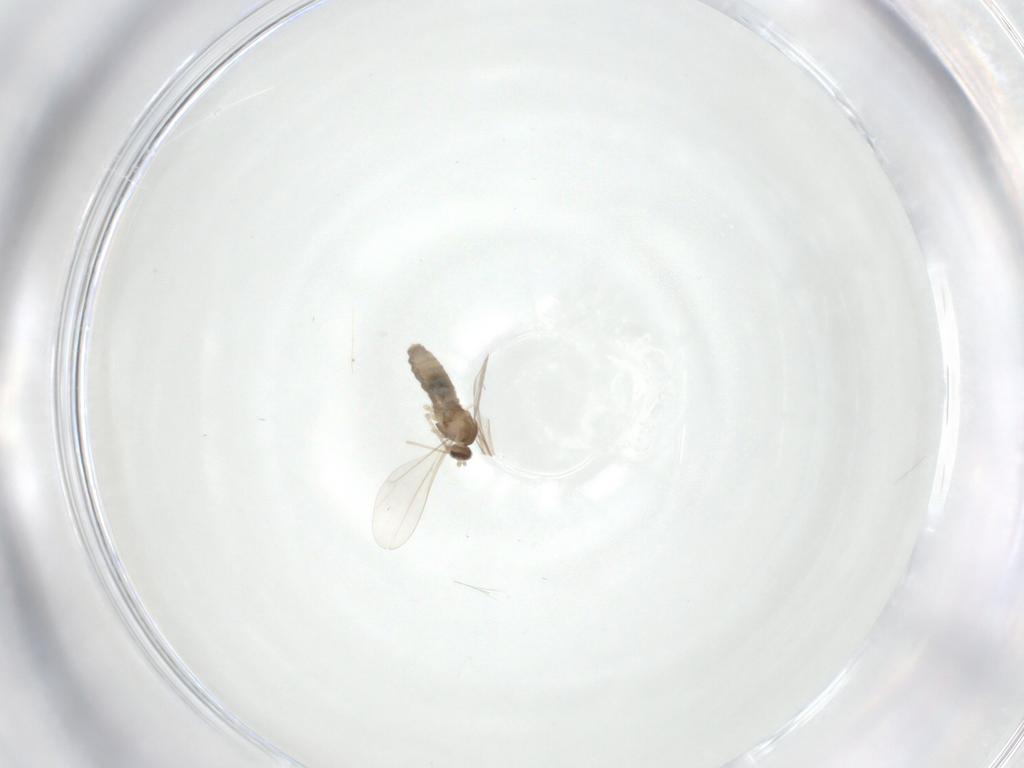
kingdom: Animalia
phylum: Arthropoda
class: Insecta
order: Diptera
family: Cecidomyiidae
